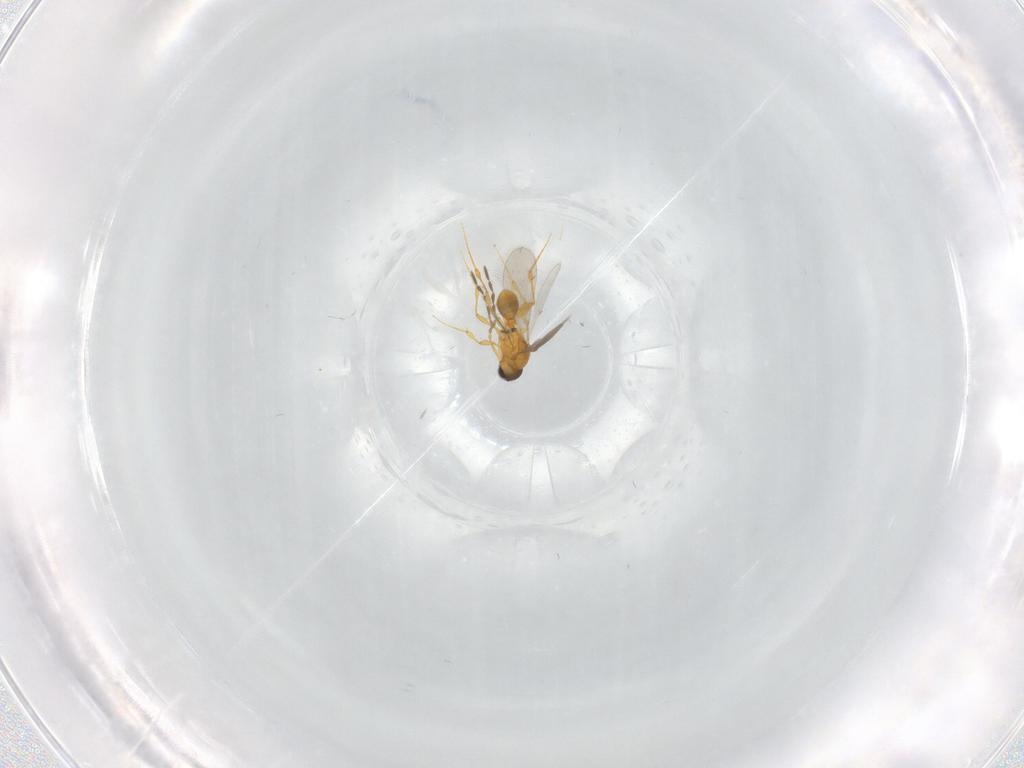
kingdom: Animalia
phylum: Arthropoda
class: Insecta
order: Hymenoptera
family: Platygastridae
